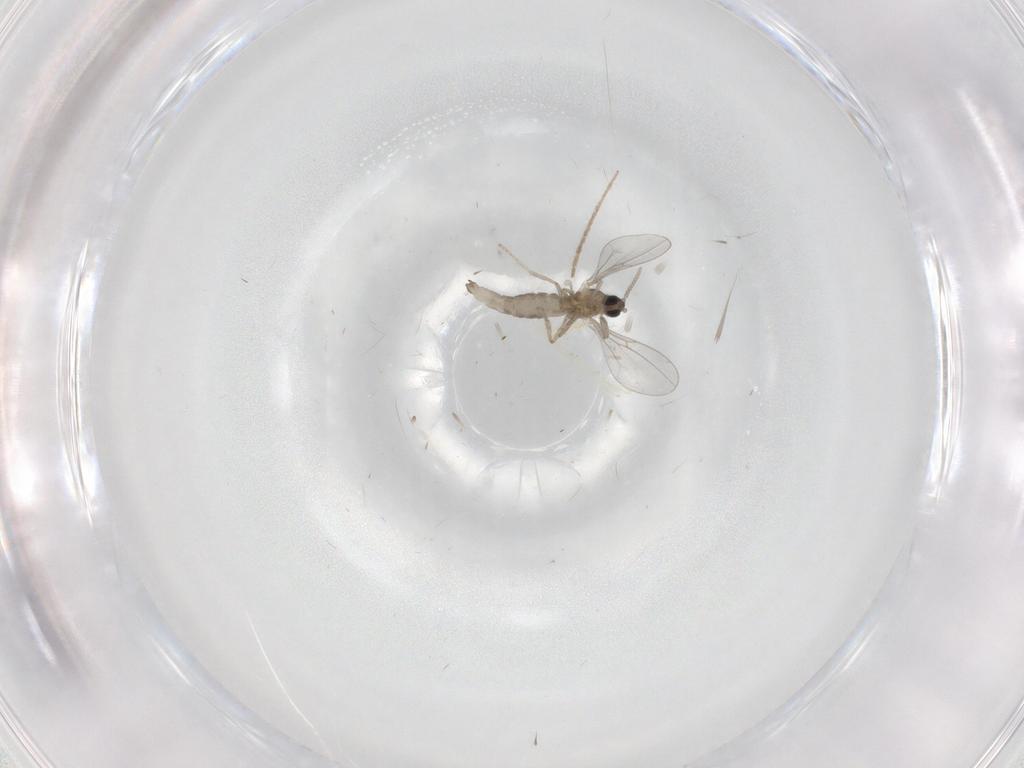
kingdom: Animalia
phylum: Arthropoda
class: Insecta
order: Diptera
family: Cecidomyiidae
